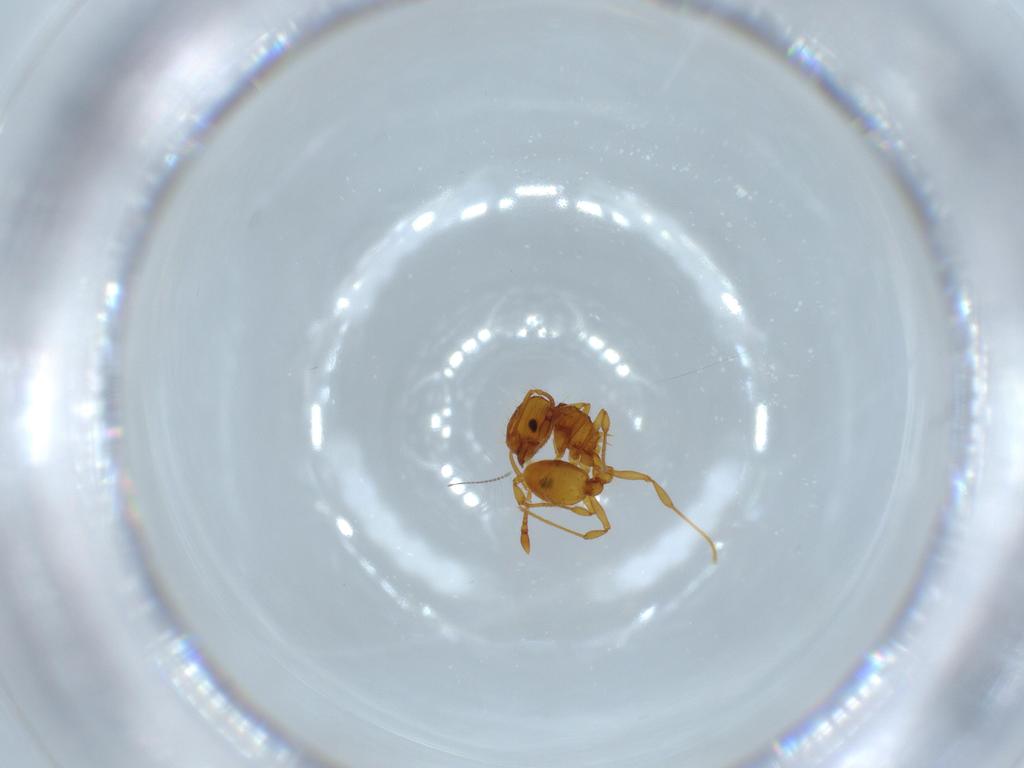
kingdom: Animalia
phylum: Arthropoda
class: Insecta
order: Hymenoptera
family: Formicidae
